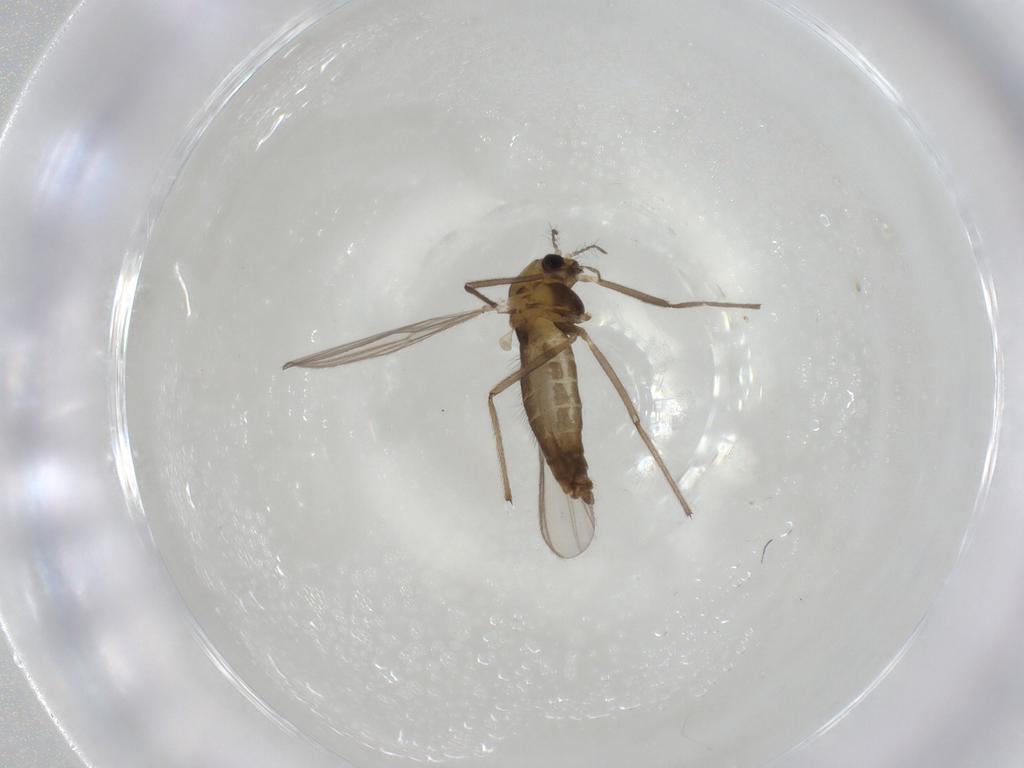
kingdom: Animalia
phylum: Arthropoda
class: Insecta
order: Diptera
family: Chironomidae
